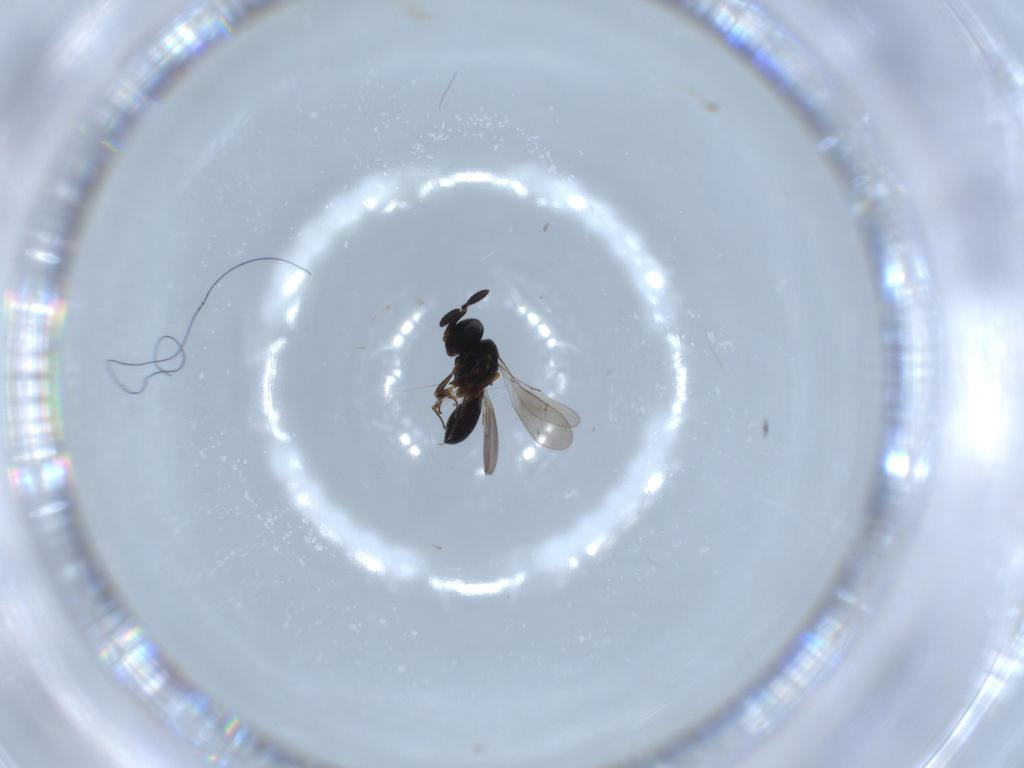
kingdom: Animalia
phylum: Arthropoda
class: Insecta
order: Hymenoptera
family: Scelionidae
